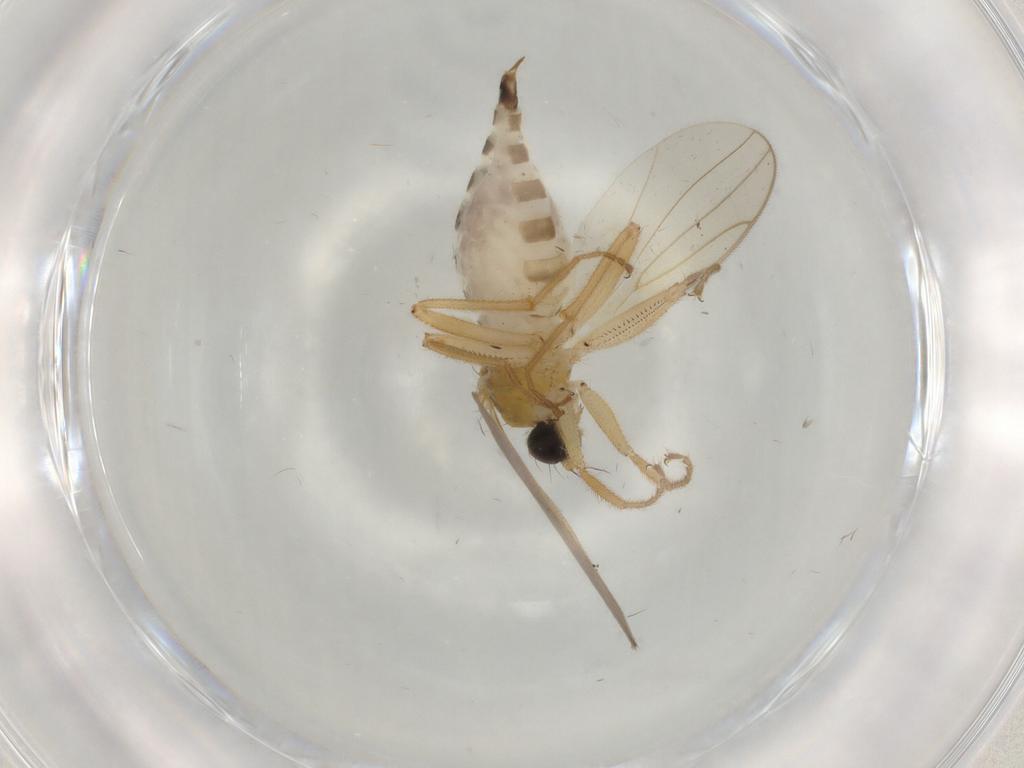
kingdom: Animalia
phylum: Arthropoda
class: Insecta
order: Diptera
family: Hybotidae
